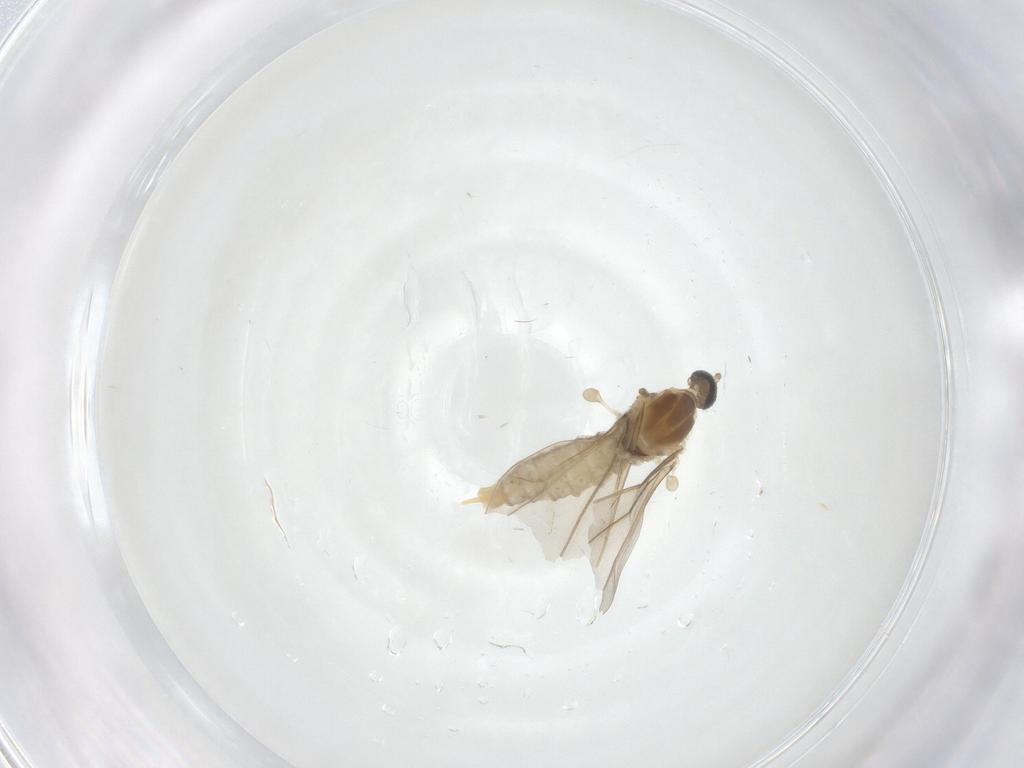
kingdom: Animalia
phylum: Arthropoda
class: Insecta
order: Diptera
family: Cecidomyiidae
